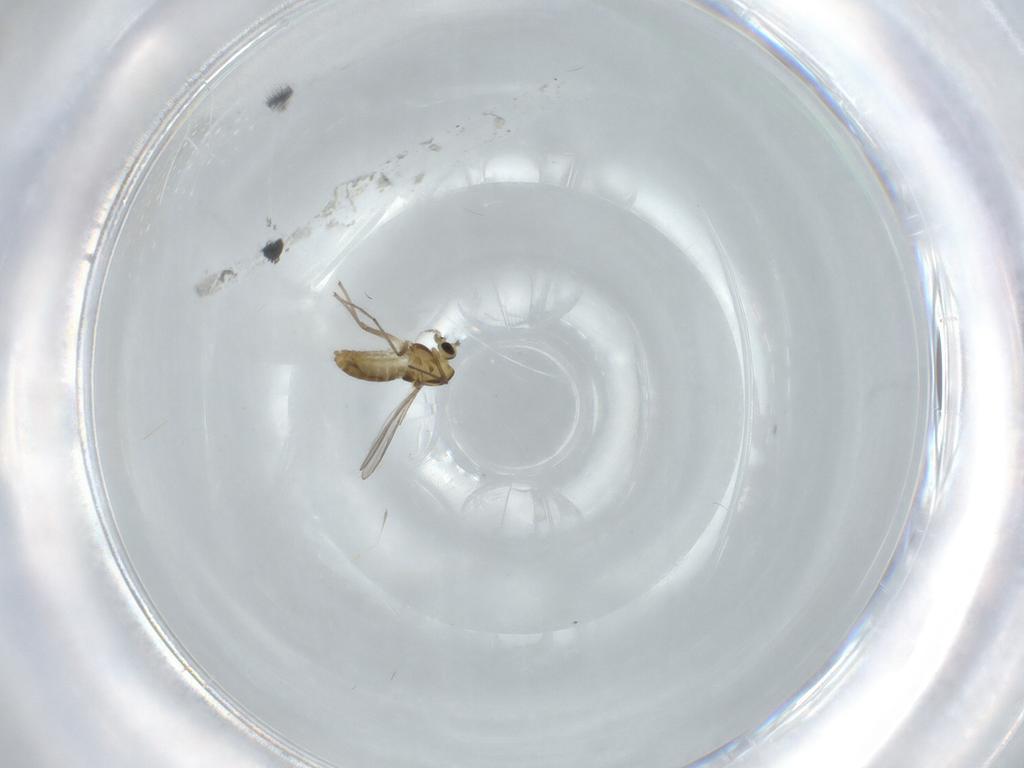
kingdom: Animalia
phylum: Arthropoda
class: Insecta
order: Diptera
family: Chironomidae
